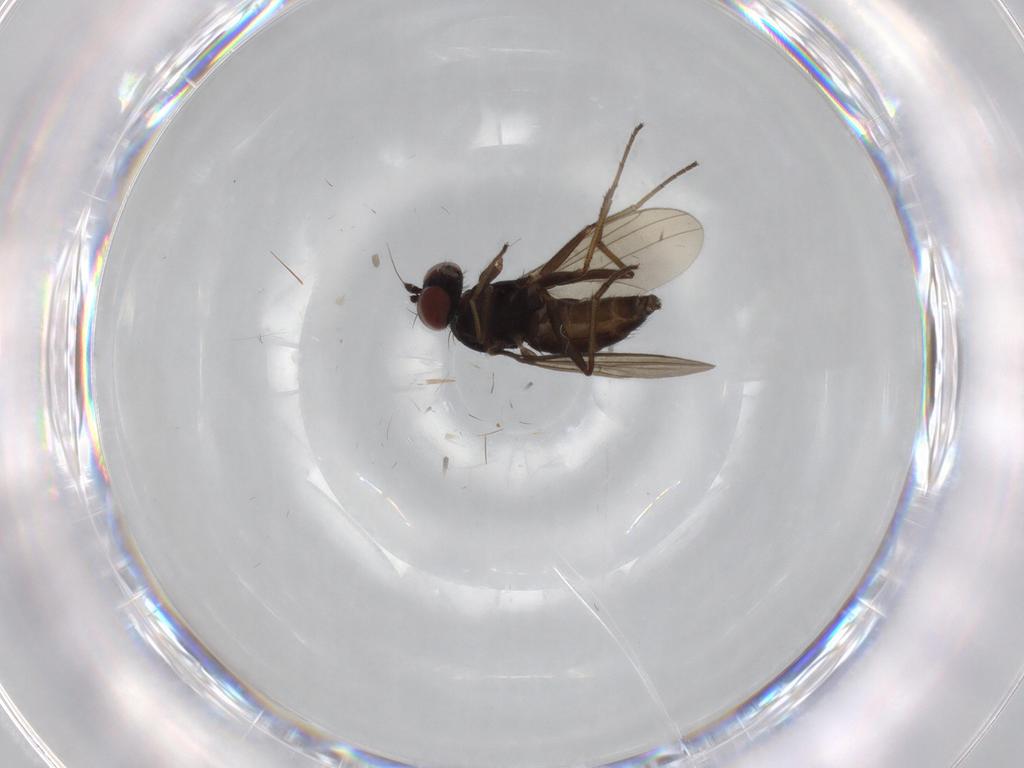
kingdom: Animalia
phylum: Arthropoda
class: Insecta
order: Diptera
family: Dolichopodidae
